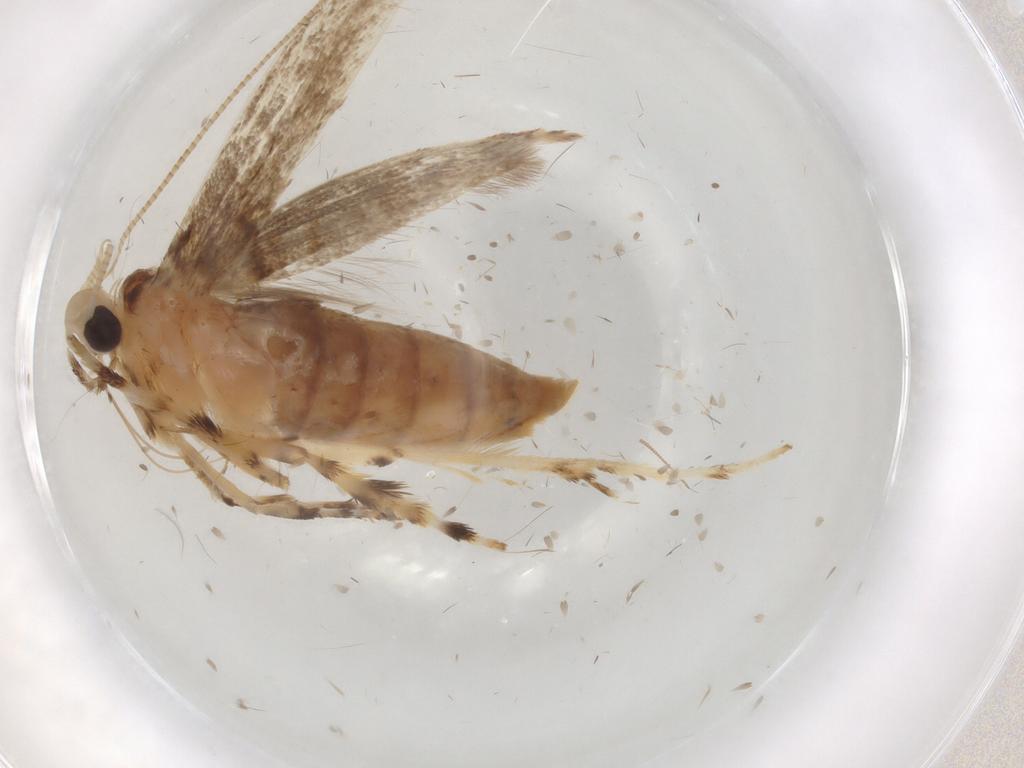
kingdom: Animalia
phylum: Arthropoda
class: Insecta
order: Lepidoptera
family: Gracillariidae
